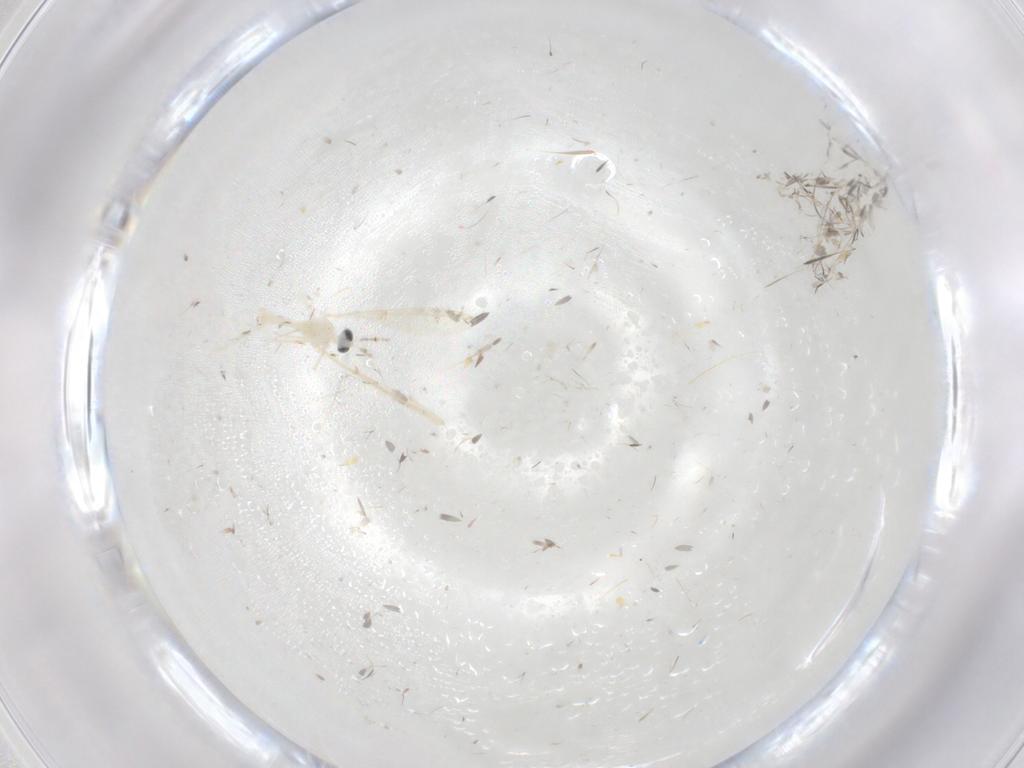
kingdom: Animalia
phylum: Arthropoda
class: Insecta
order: Diptera
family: Cecidomyiidae
